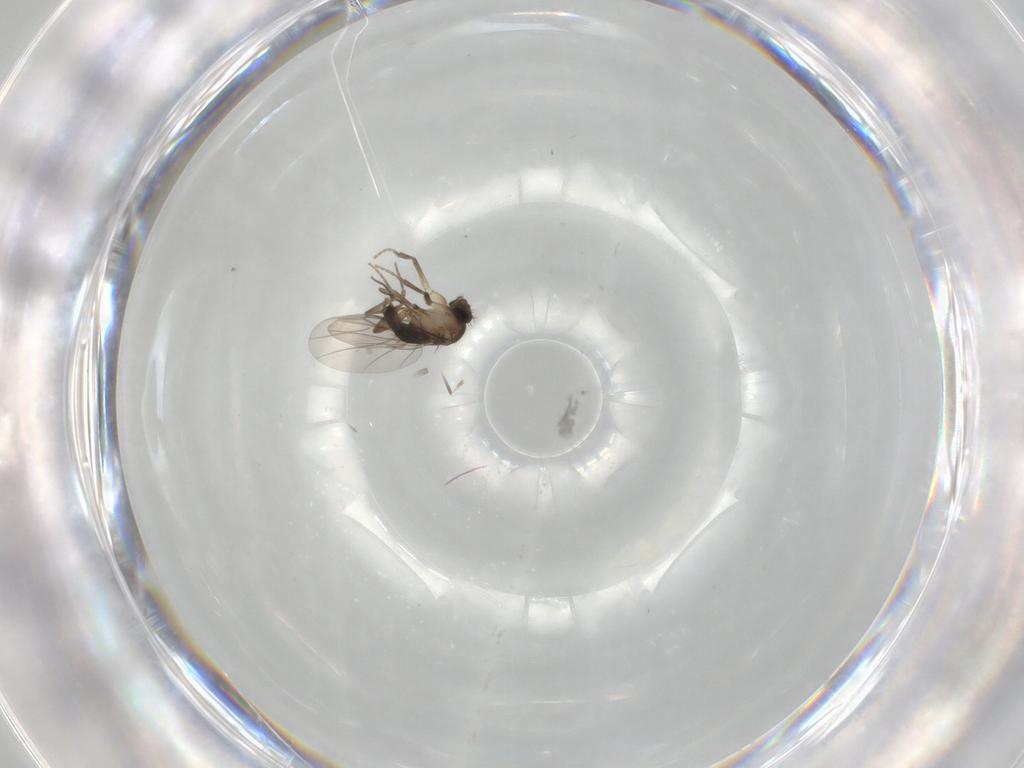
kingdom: Animalia
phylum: Arthropoda
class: Insecta
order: Diptera
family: Phoridae
